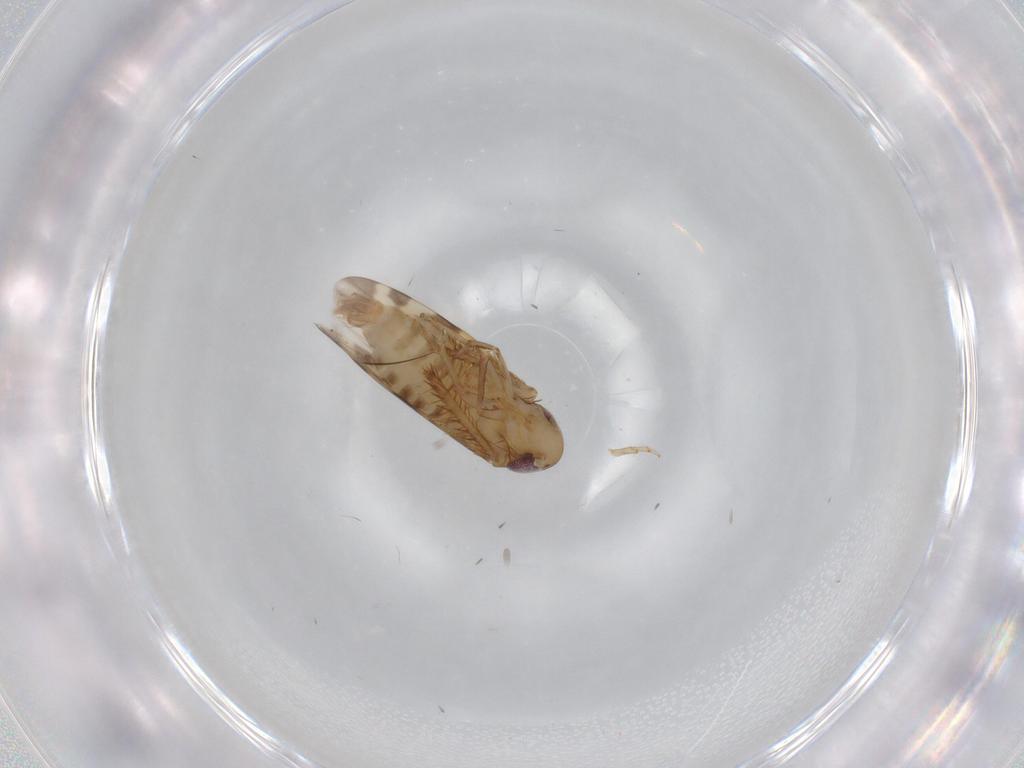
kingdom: Animalia
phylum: Arthropoda
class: Insecta
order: Hemiptera
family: Cicadellidae
